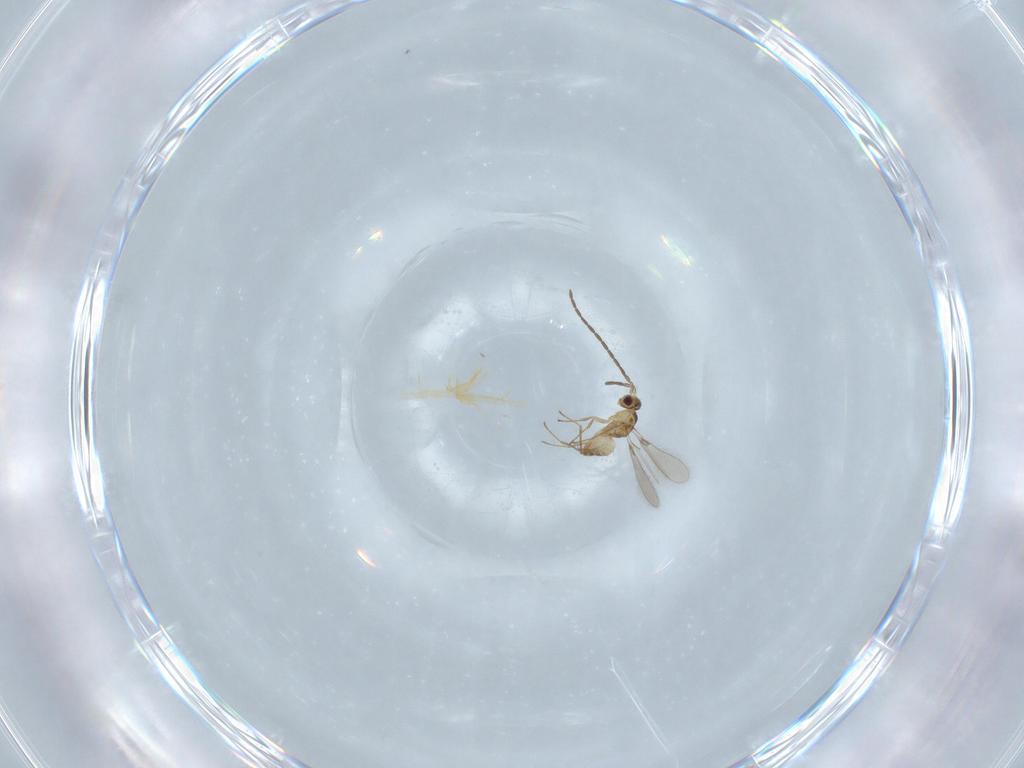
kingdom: Animalia
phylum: Arthropoda
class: Insecta
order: Hymenoptera
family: Mymaridae
